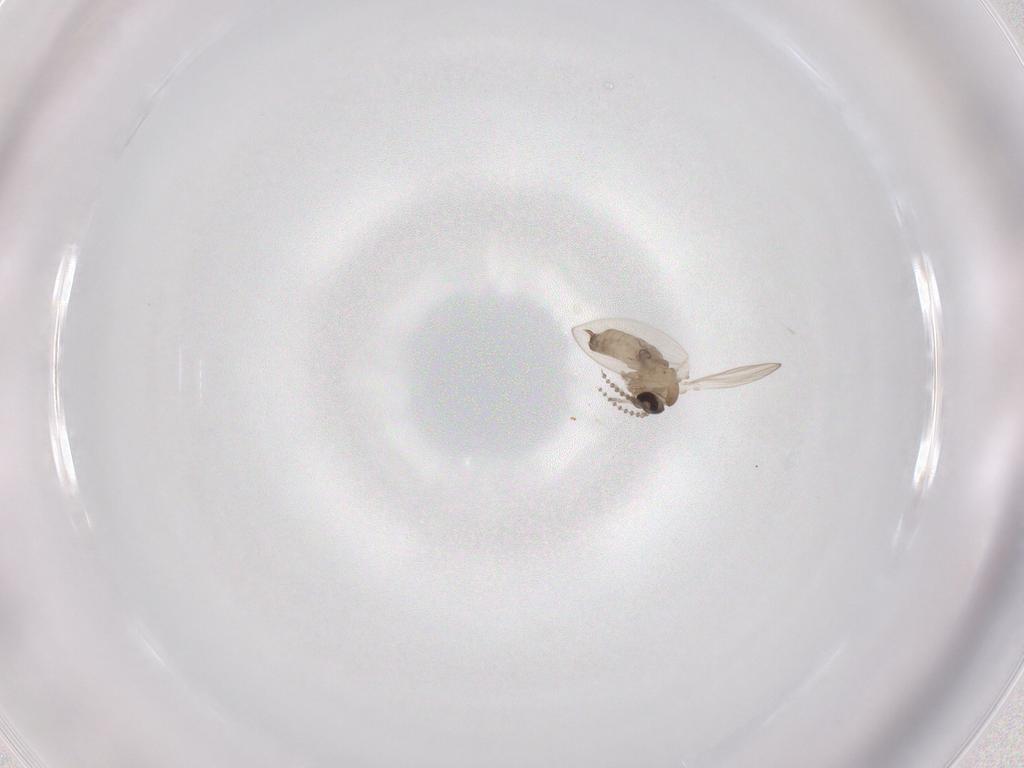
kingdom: Animalia
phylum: Arthropoda
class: Insecta
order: Diptera
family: Psychodidae
